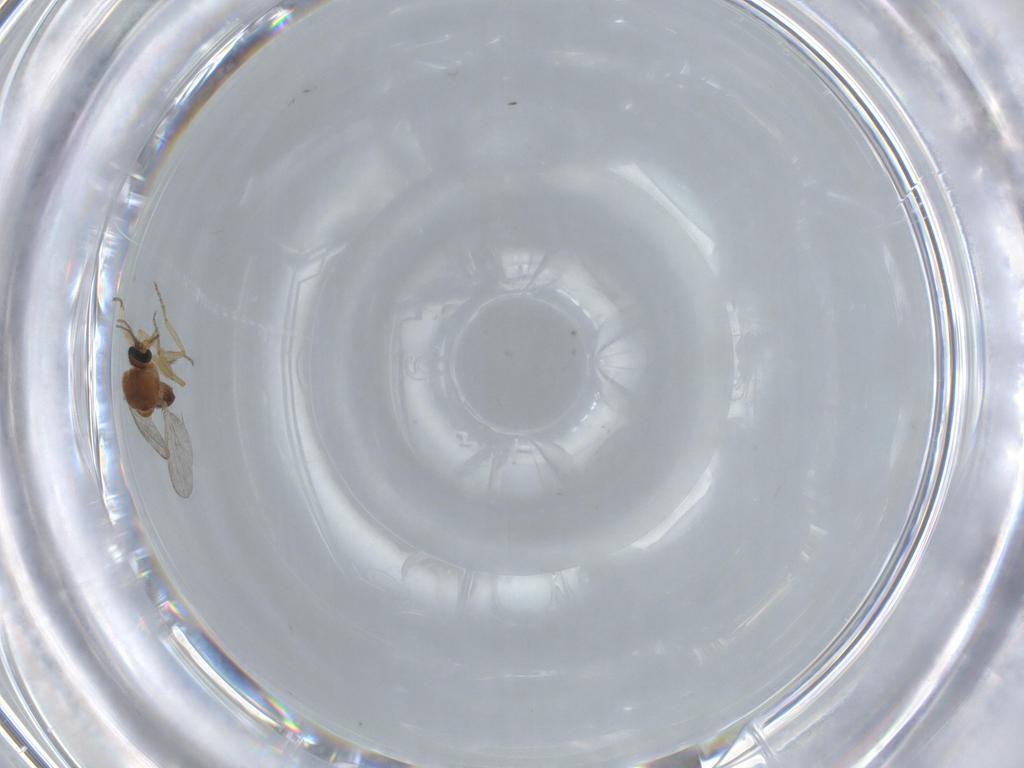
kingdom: Animalia
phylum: Arthropoda
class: Insecta
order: Diptera
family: Ceratopogonidae
